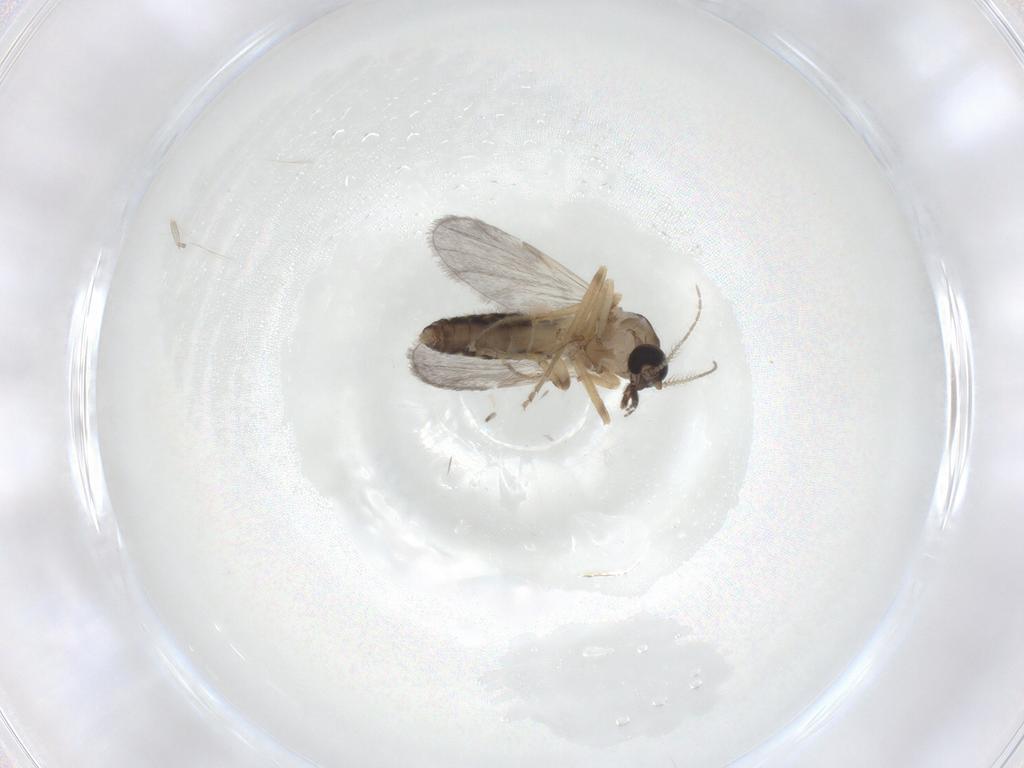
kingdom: Animalia
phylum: Arthropoda
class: Insecta
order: Diptera
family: Ceratopogonidae
